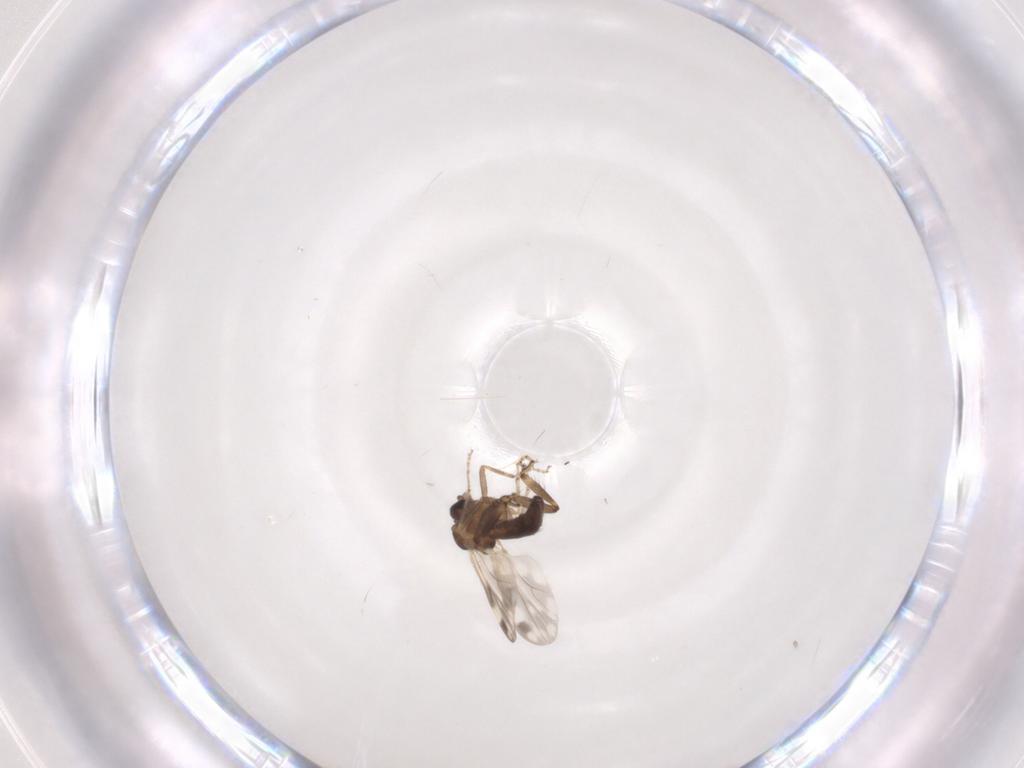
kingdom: Animalia
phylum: Arthropoda
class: Insecta
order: Diptera
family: Ceratopogonidae
